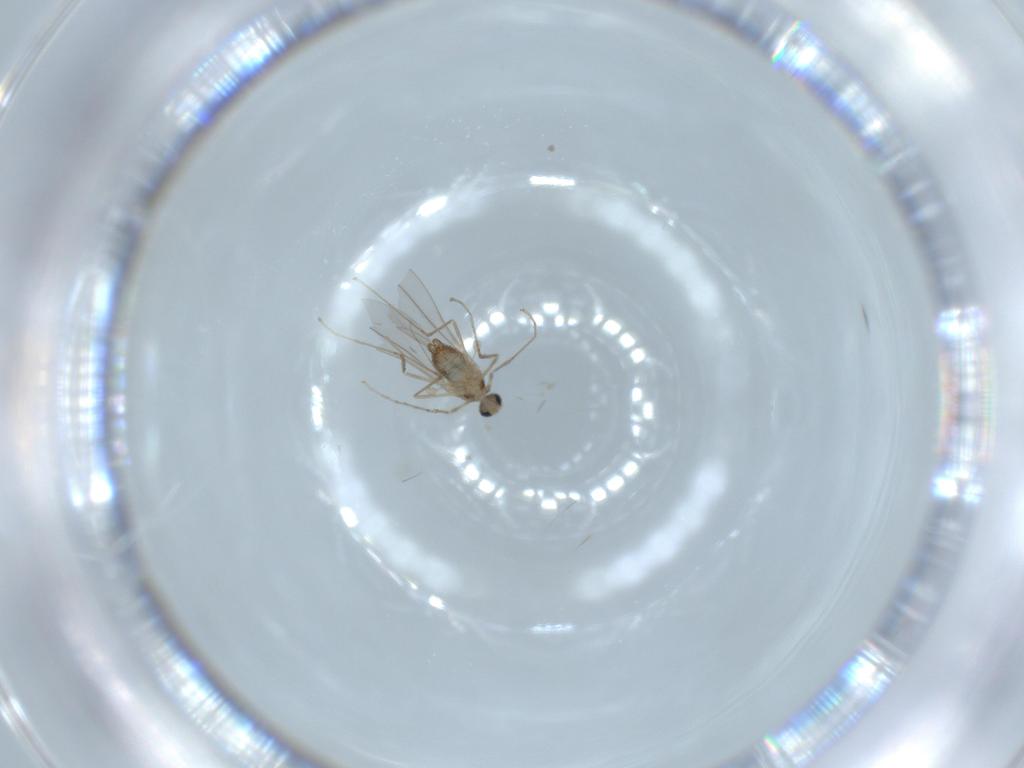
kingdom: Animalia
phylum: Arthropoda
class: Insecta
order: Diptera
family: Cecidomyiidae
